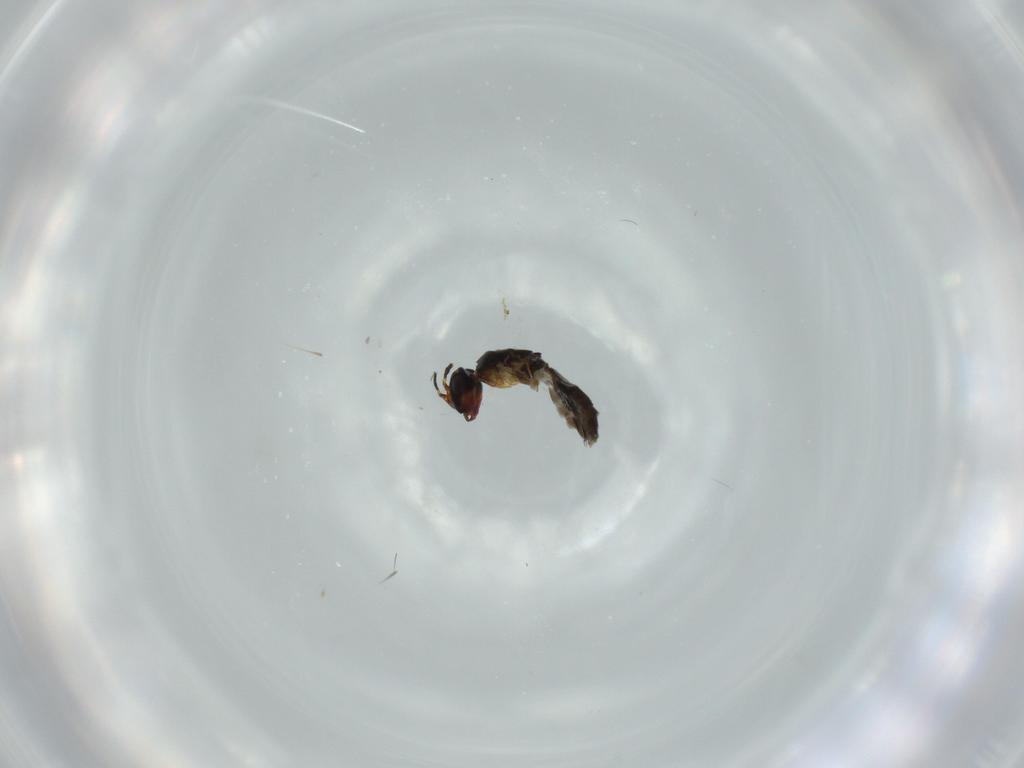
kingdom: Animalia
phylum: Arthropoda
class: Insecta
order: Hymenoptera
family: Agaonidae
